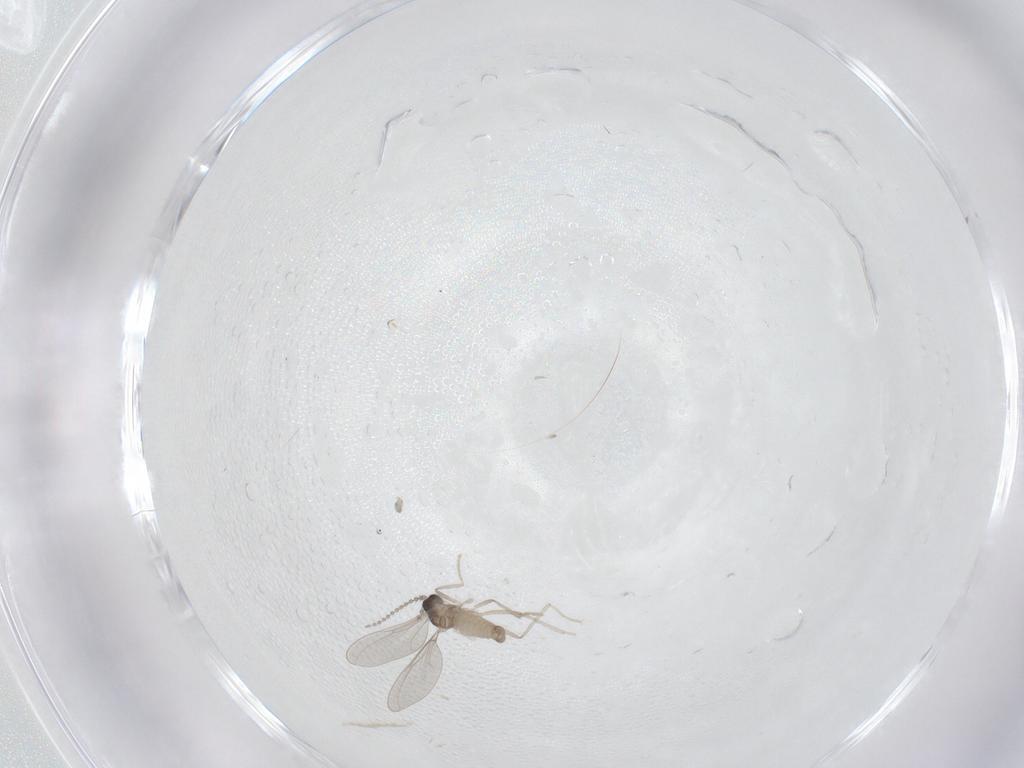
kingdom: Animalia
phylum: Arthropoda
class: Insecta
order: Diptera
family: Cecidomyiidae
